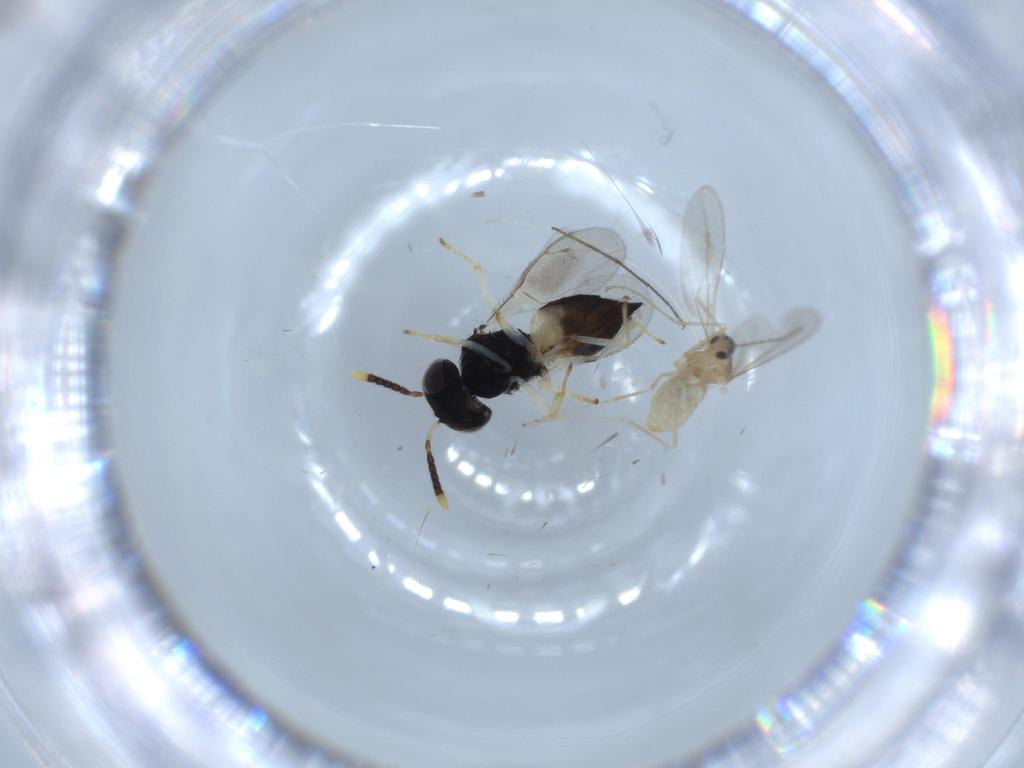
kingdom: Animalia
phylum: Arthropoda
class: Insecta
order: Diptera
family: Cecidomyiidae
